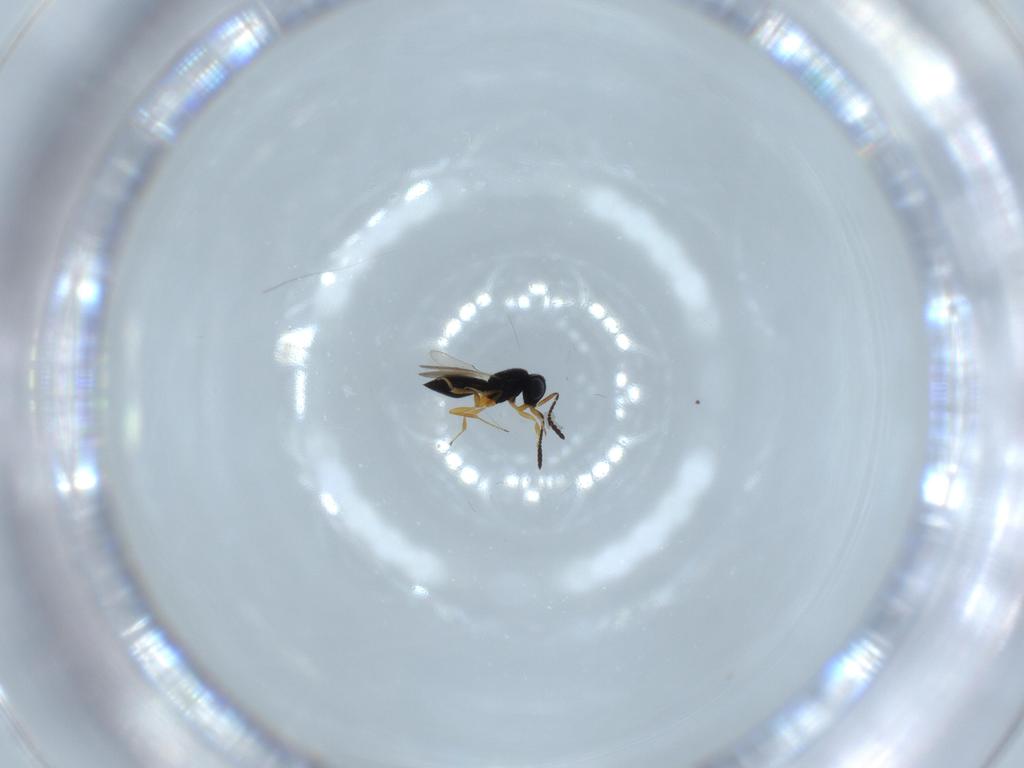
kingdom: Animalia
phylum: Arthropoda
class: Insecta
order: Hymenoptera
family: Scelionidae
